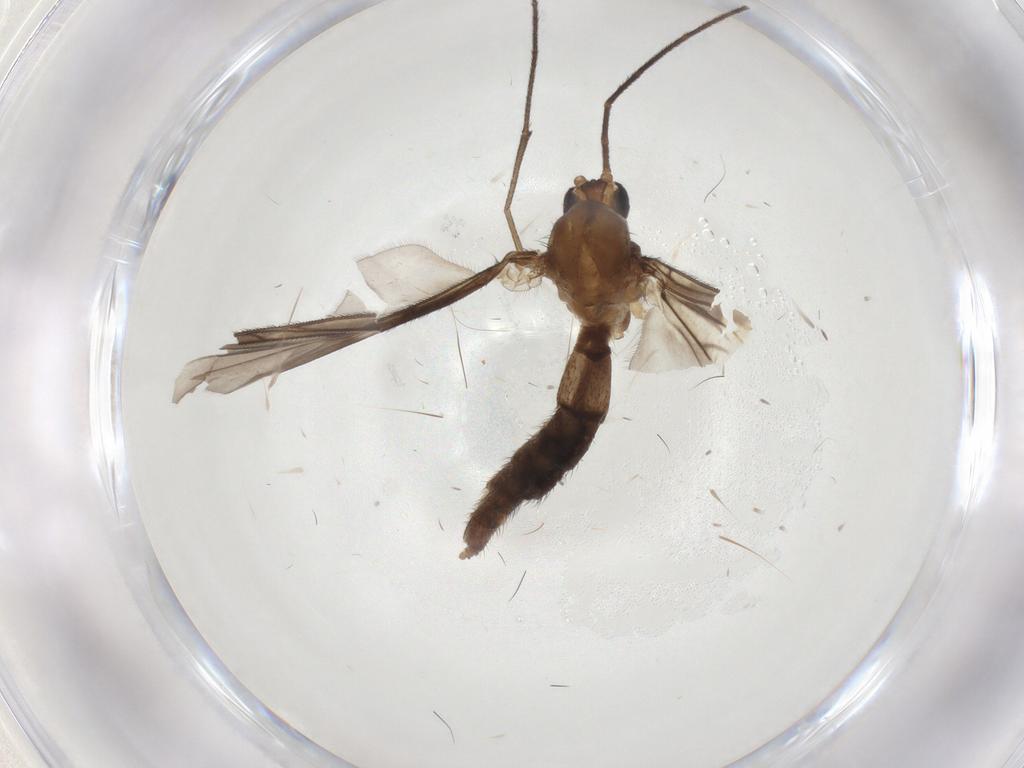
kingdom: Animalia
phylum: Arthropoda
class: Insecta
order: Diptera
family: Keroplatidae
